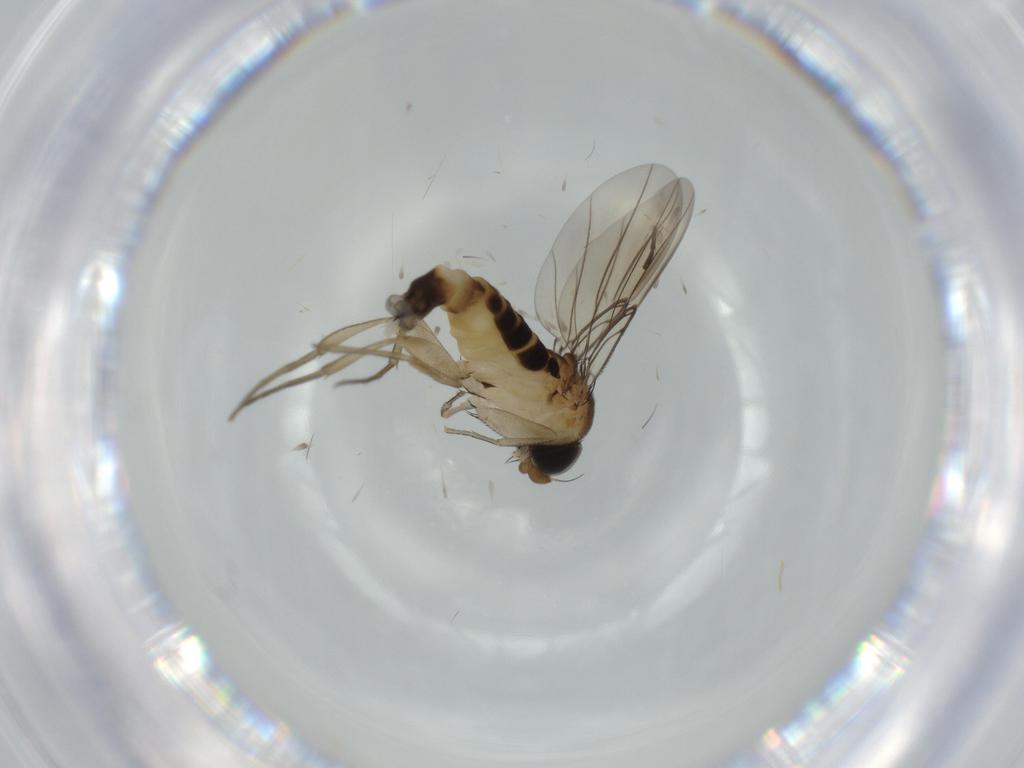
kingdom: Animalia
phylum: Arthropoda
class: Insecta
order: Diptera
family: Phoridae
